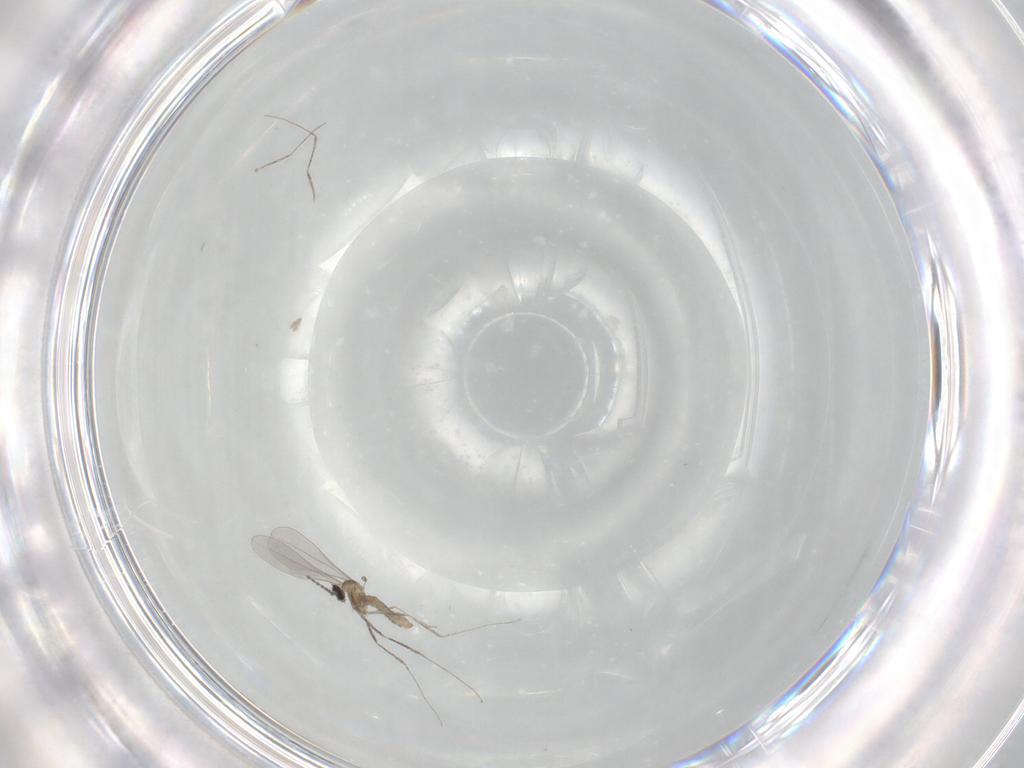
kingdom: Animalia
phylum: Arthropoda
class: Insecta
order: Diptera
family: Cecidomyiidae
